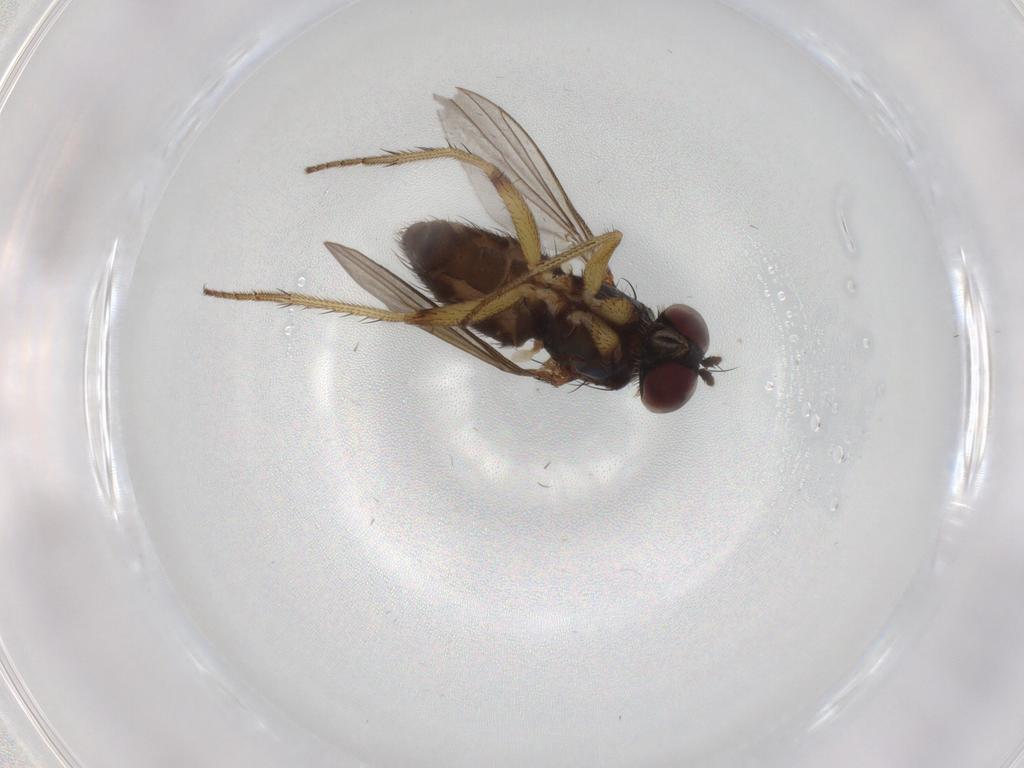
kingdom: Animalia
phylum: Arthropoda
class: Insecta
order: Diptera
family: Dolichopodidae
